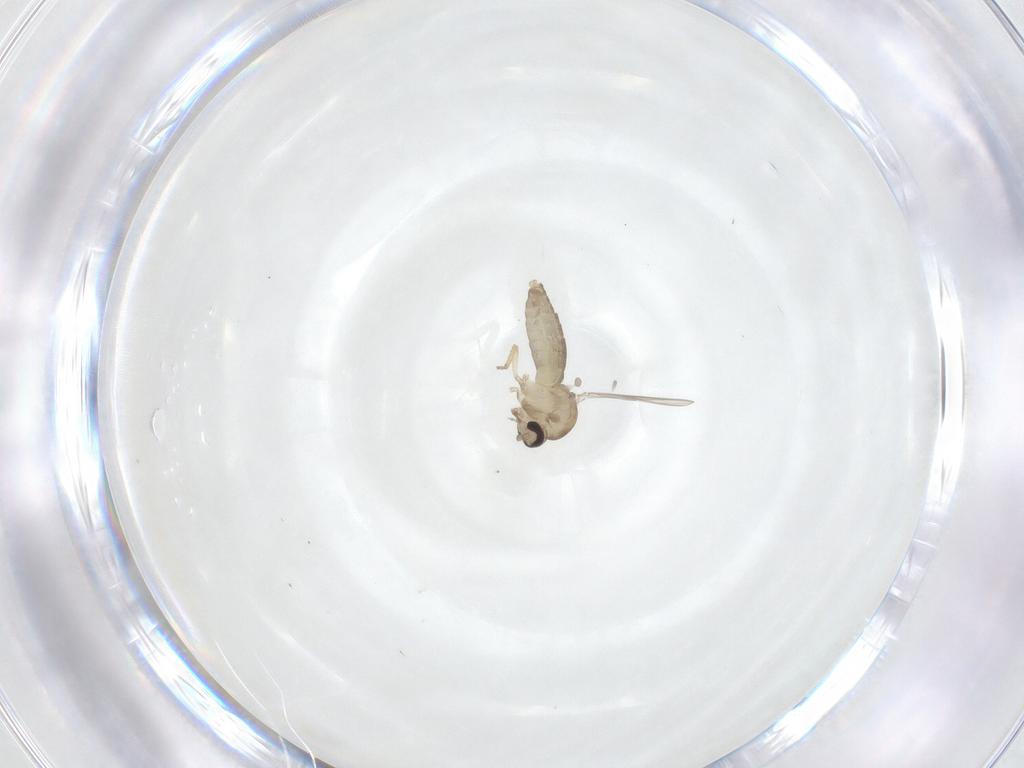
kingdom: Animalia
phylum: Arthropoda
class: Insecta
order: Diptera
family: Ceratopogonidae
